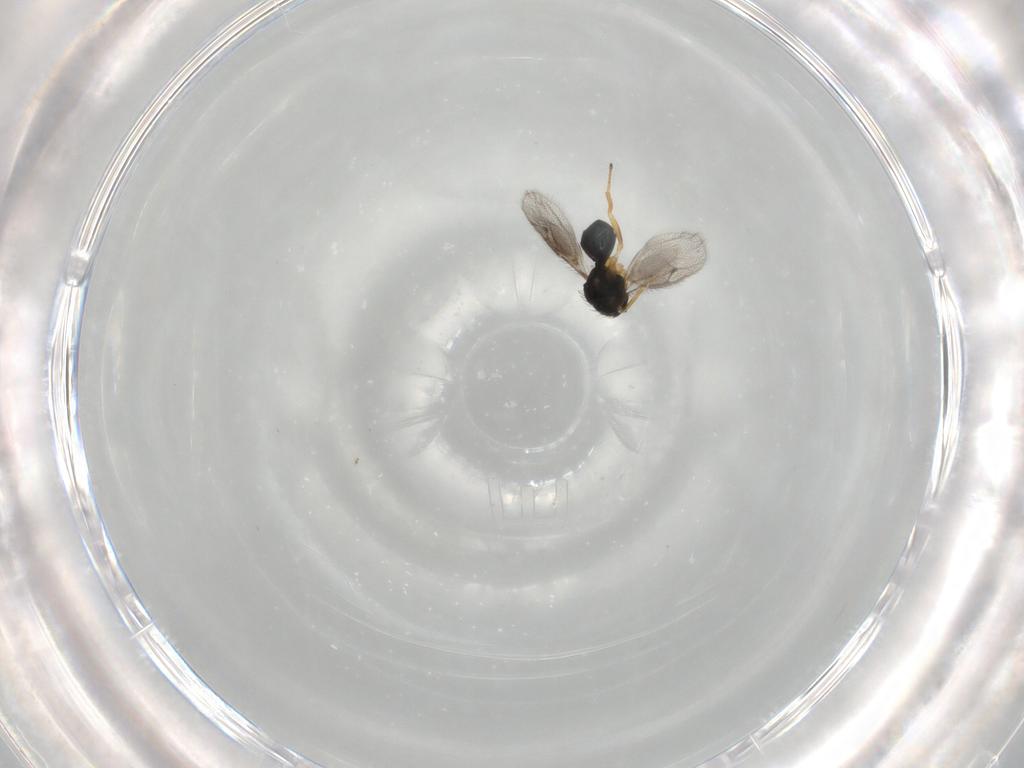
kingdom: Animalia
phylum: Arthropoda
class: Insecta
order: Hymenoptera
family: Pteromalidae
